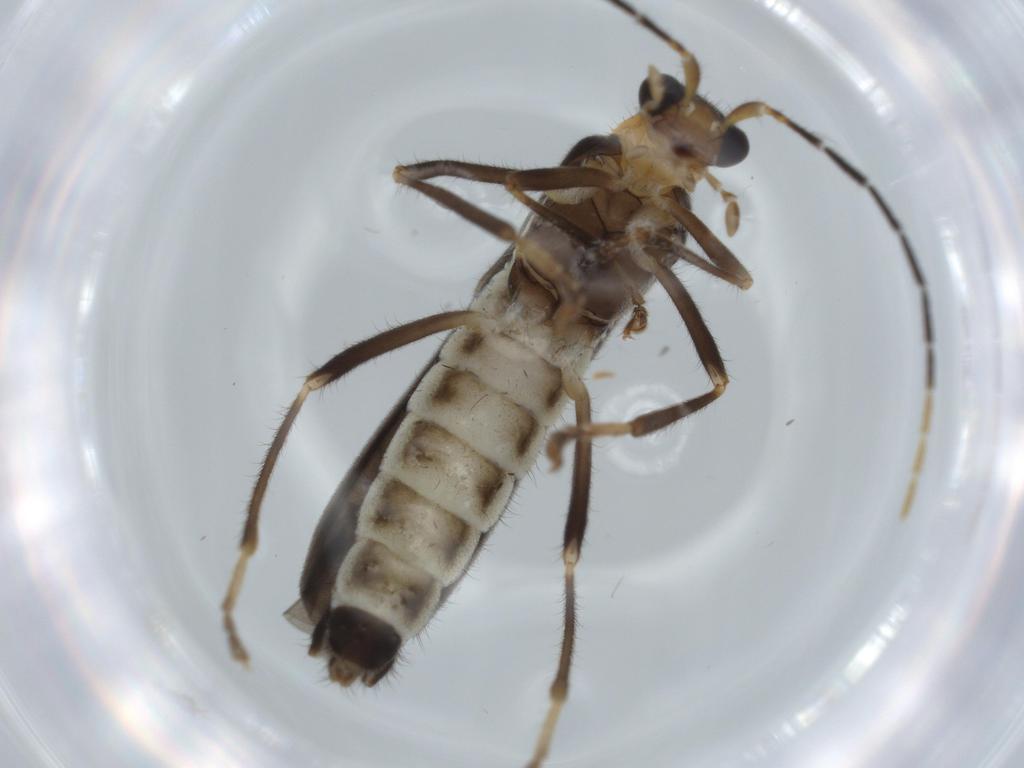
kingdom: Animalia
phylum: Arthropoda
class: Insecta
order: Coleoptera
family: Cantharidae
